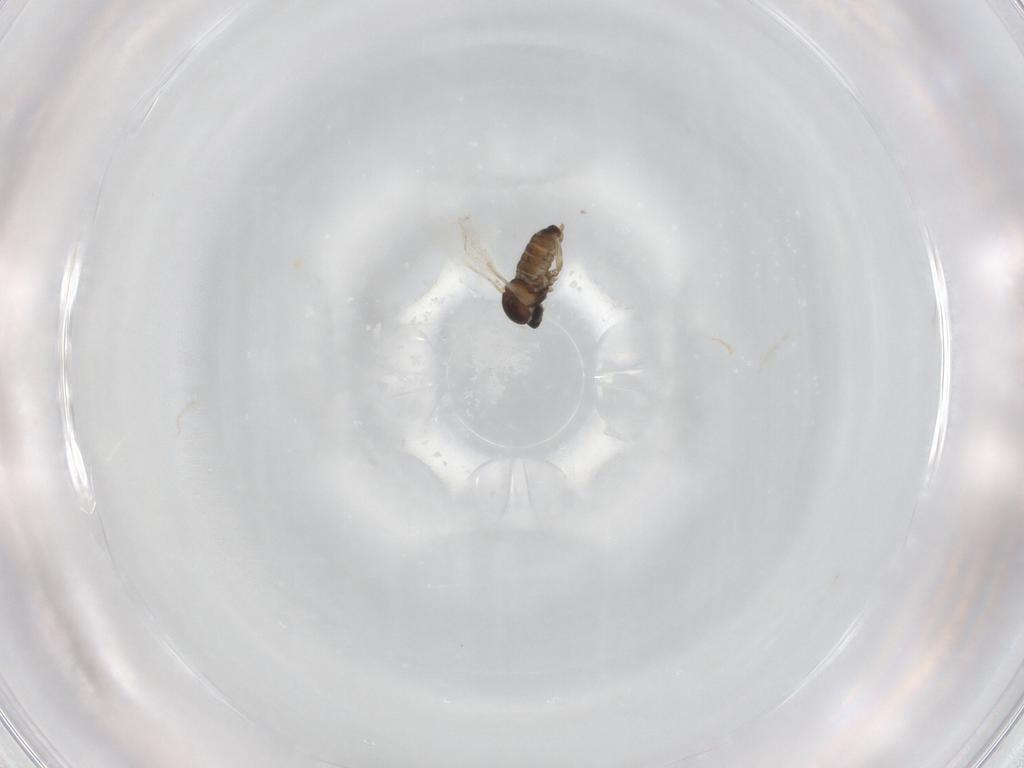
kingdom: Animalia
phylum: Arthropoda
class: Insecta
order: Diptera
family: Cecidomyiidae
